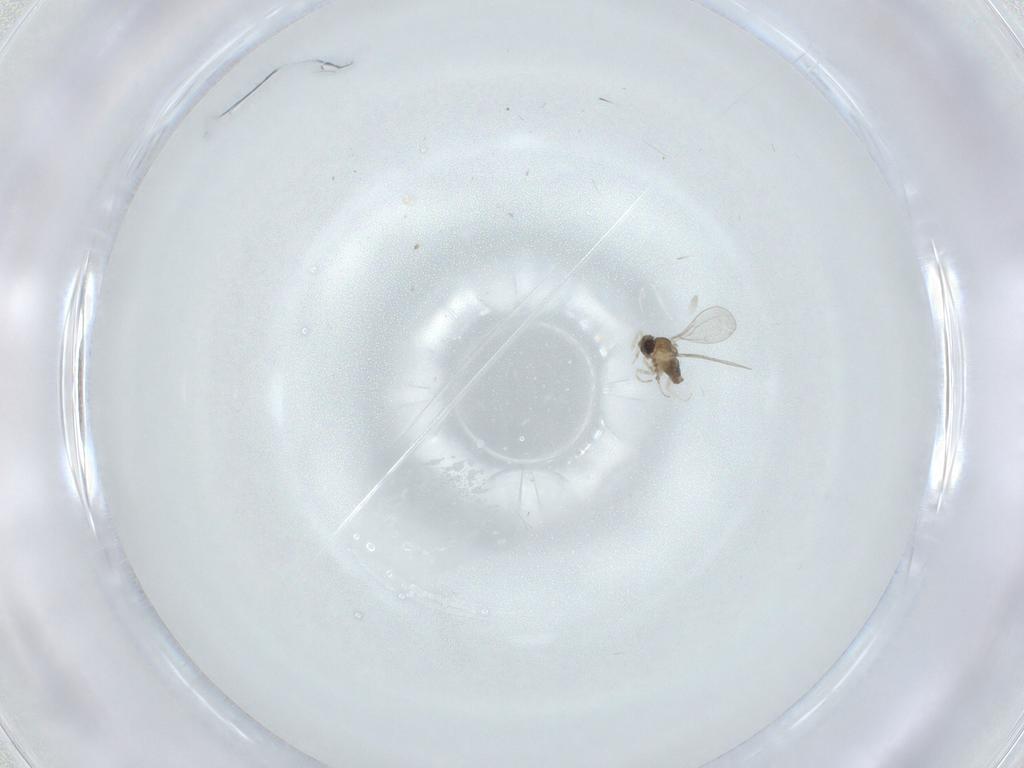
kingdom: Animalia
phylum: Arthropoda
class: Insecta
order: Diptera
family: Cecidomyiidae
